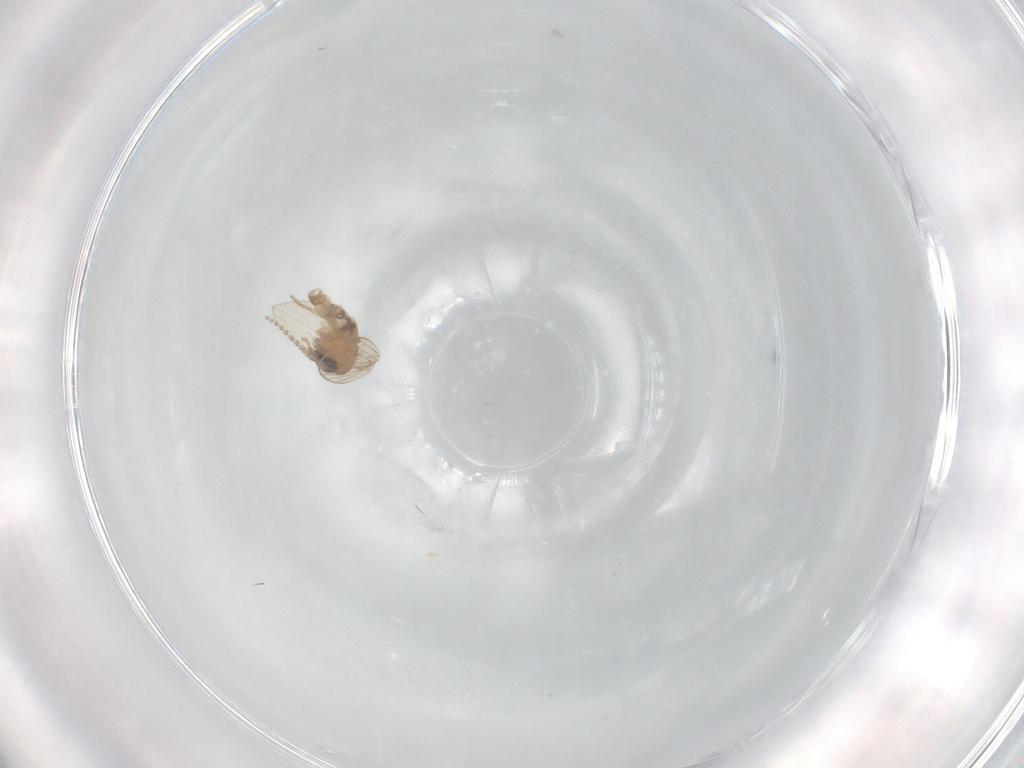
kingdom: Animalia
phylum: Arthropoda
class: Insecta
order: Diptera
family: Psychodidae
